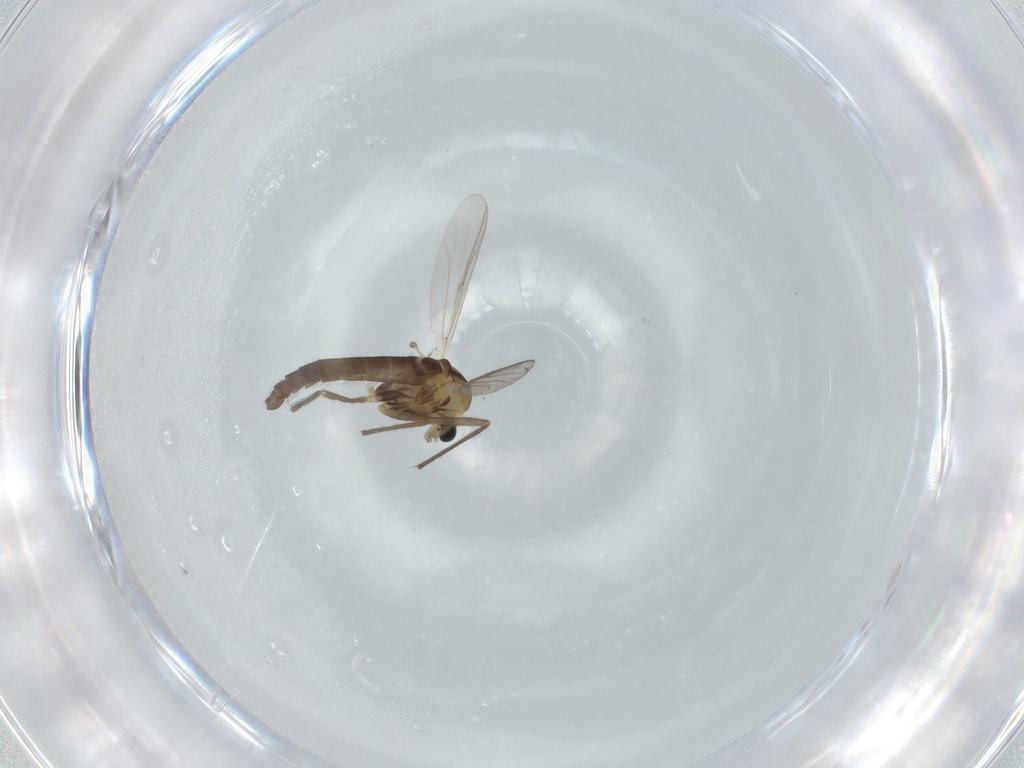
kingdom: Animalia
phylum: Arthropoda
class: Insecta
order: Diptera
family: Chironomidae
